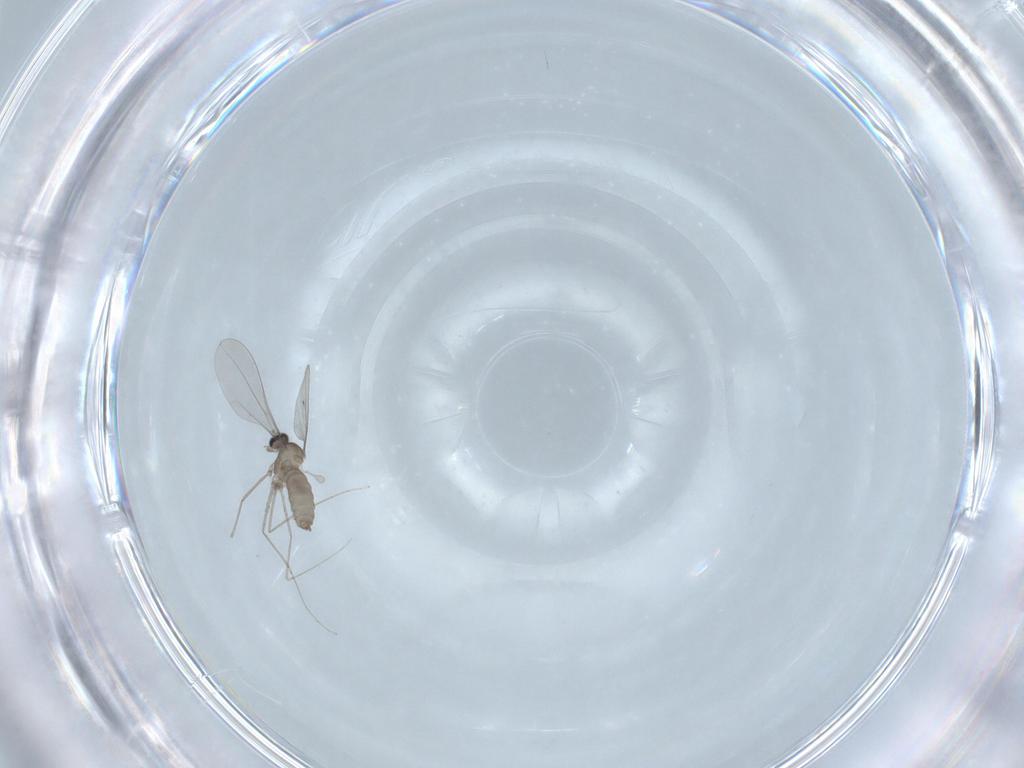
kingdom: Animalia
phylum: Arthropoda
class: Insecta
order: Diptera
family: Cecidomyiidae
